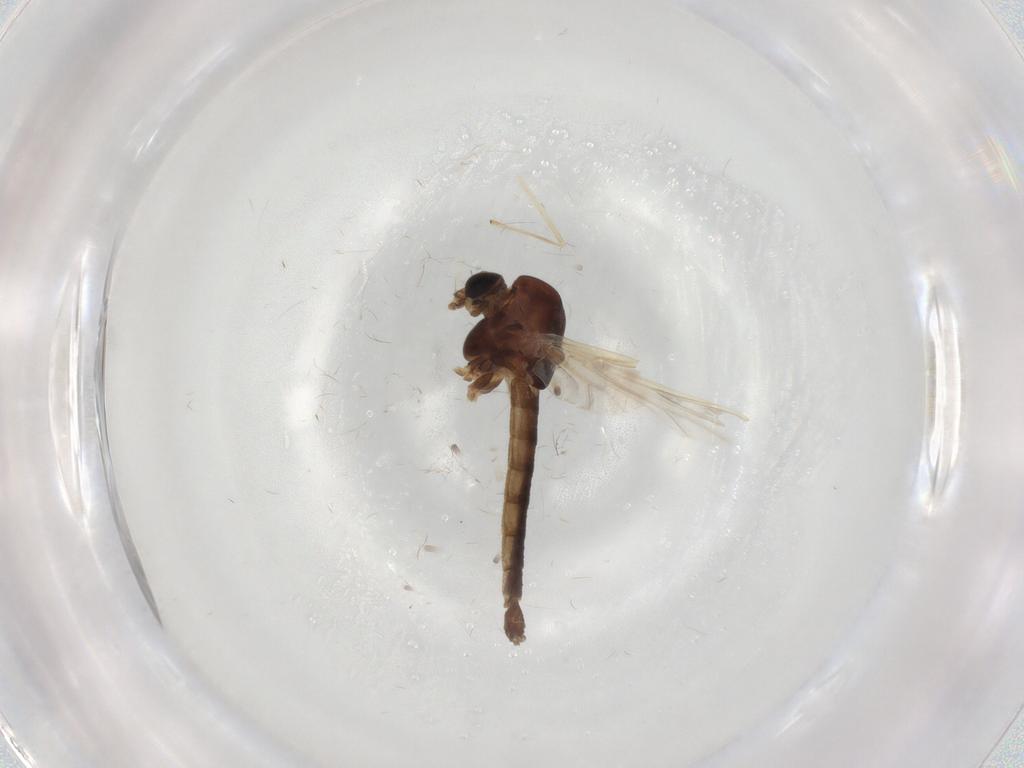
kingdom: Animalia
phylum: Arthropoda
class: Insecta
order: Diptera
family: Chironomidae
